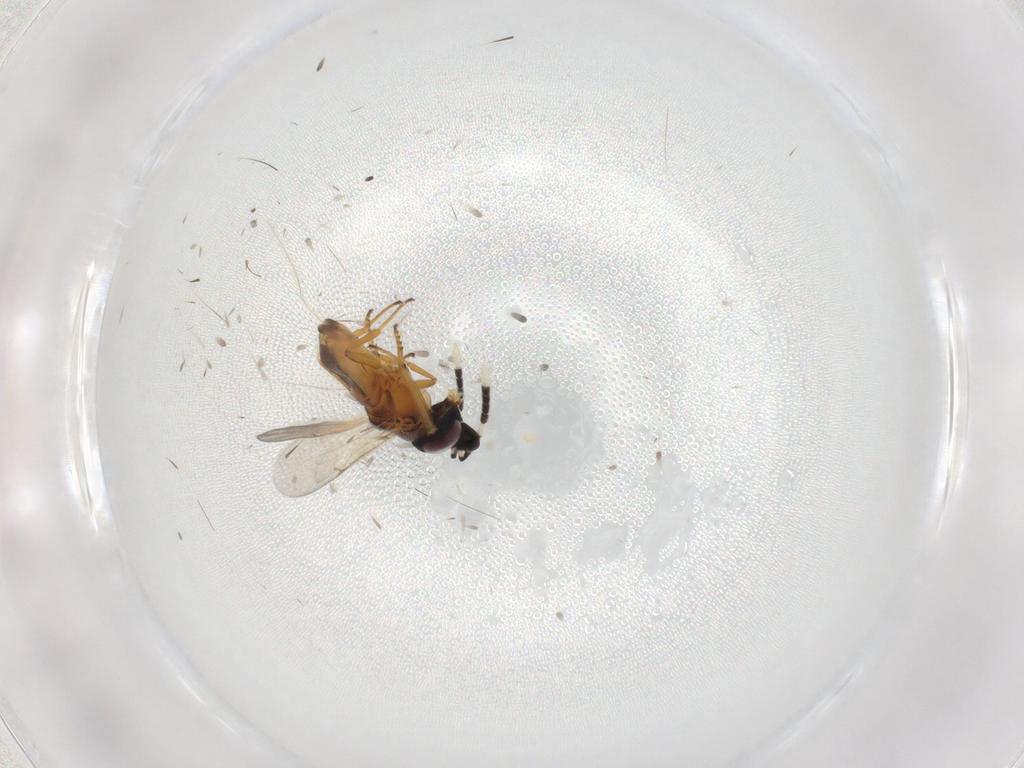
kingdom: Animalia
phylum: Arthropoda
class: Insecta
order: Hymenoptera
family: Encyrtidae
